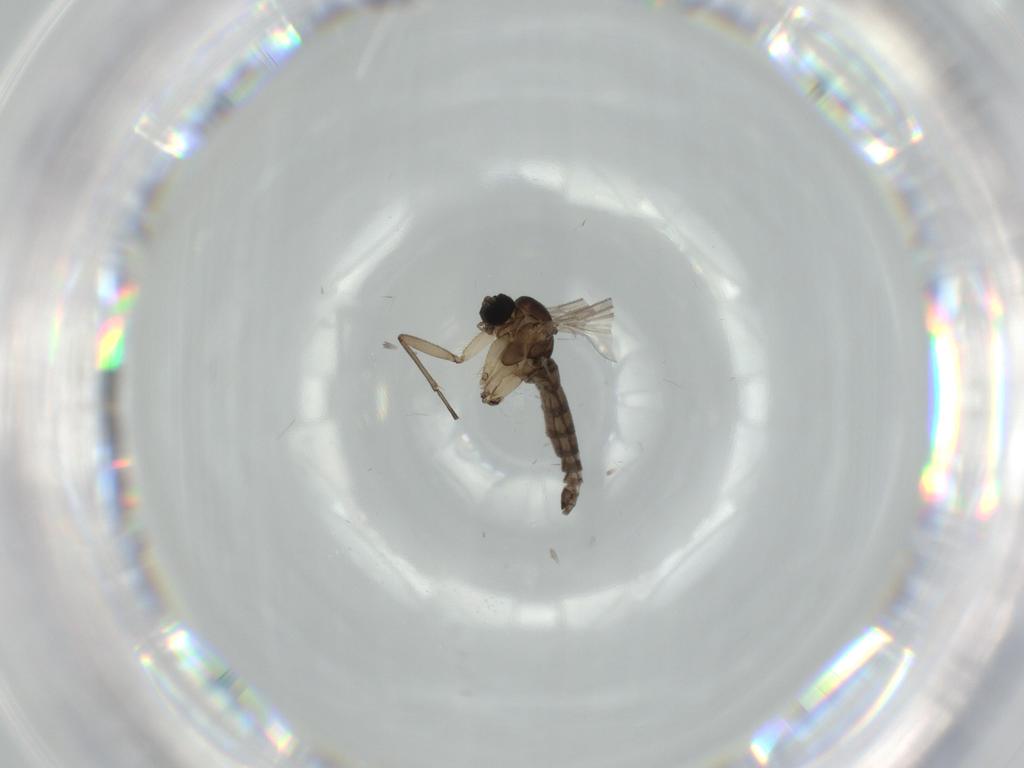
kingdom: Animalia
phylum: Arthropoda
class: Insecta
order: Diptera
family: Sciaridae
